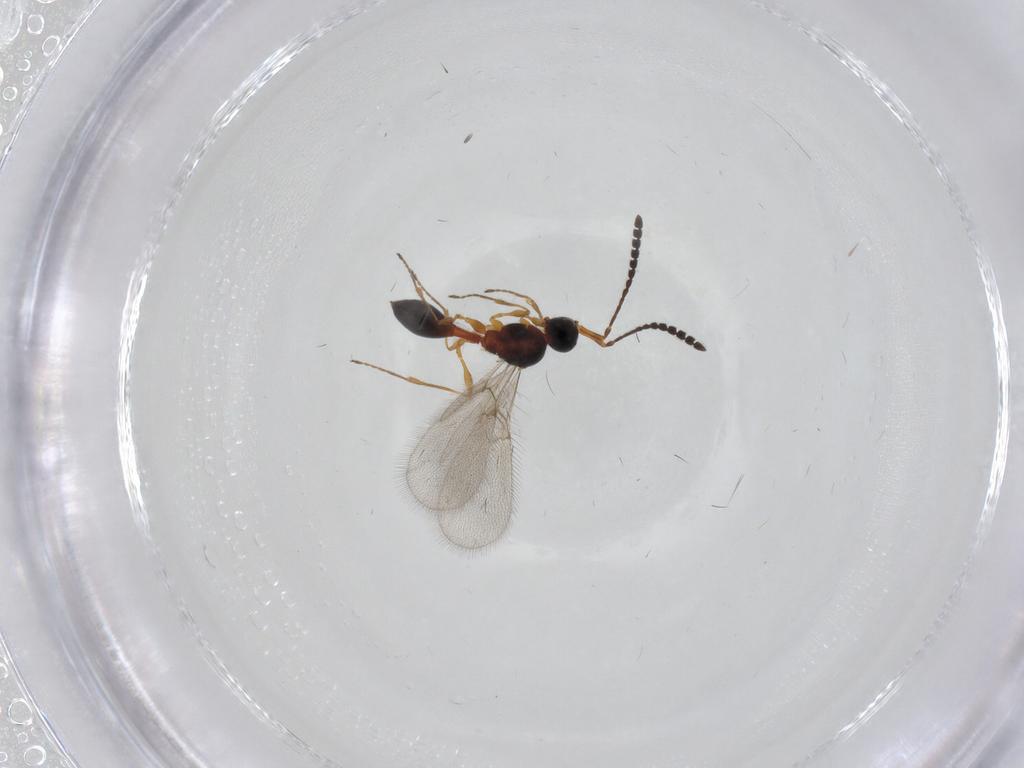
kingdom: Animalia
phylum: Arthropoda
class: Insecta
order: Hymenoptera
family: Diapriidae
